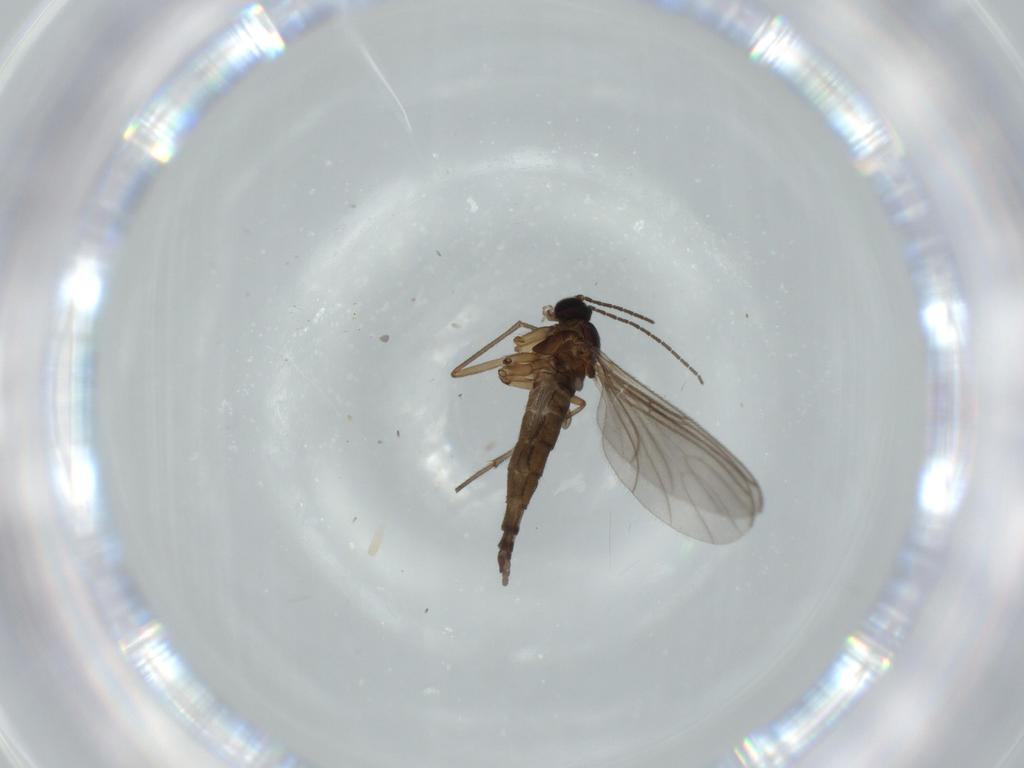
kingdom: Animalia
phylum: Arthropoda
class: Insecta
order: Diptera
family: Sciaridae
